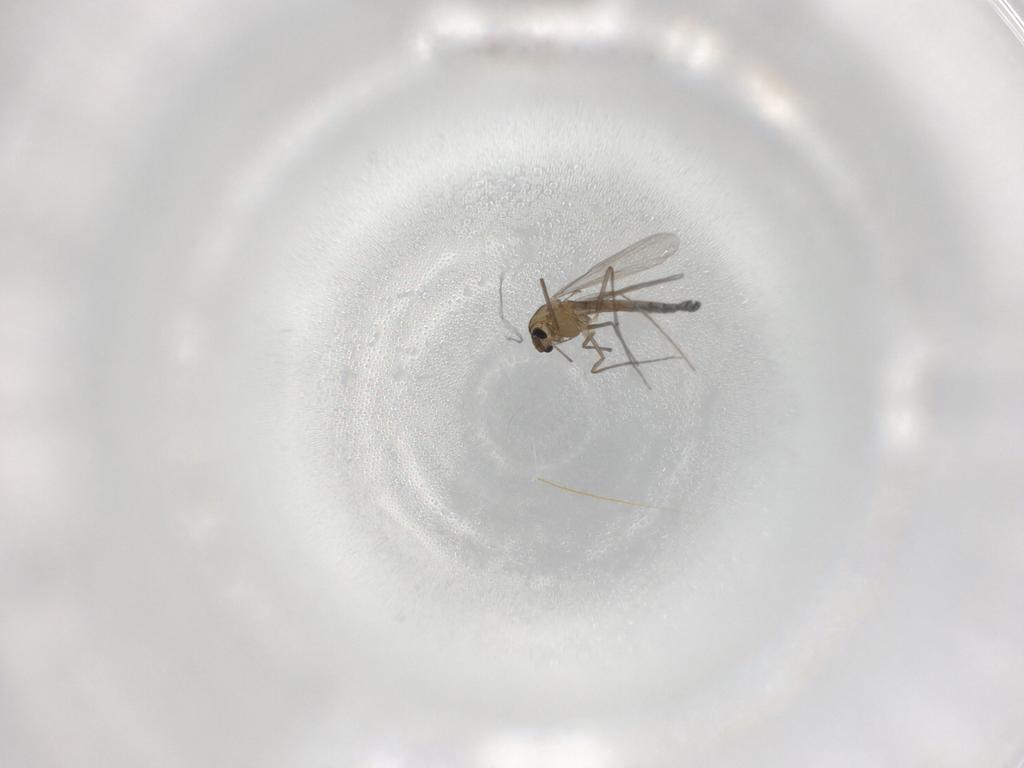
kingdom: Animalia
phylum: Arthropoda
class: Insecta
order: Diptera
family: Chironomidae
